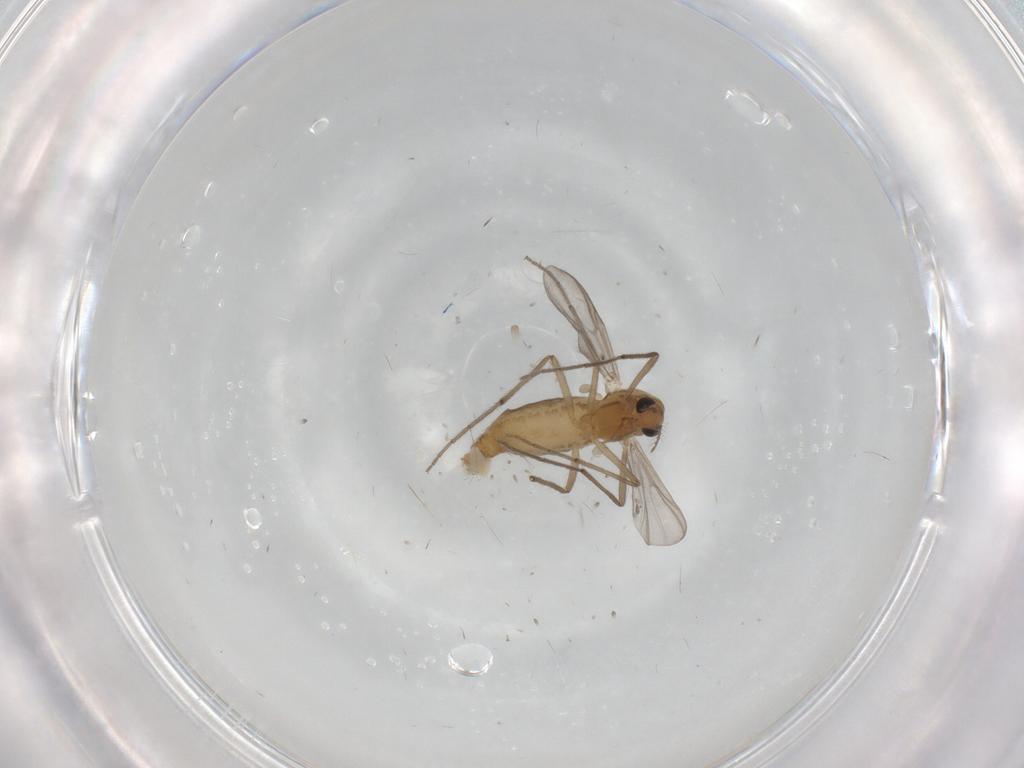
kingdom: Animalia
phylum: Arthropoda
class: Insecta
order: Diptera
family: Chironomidae
